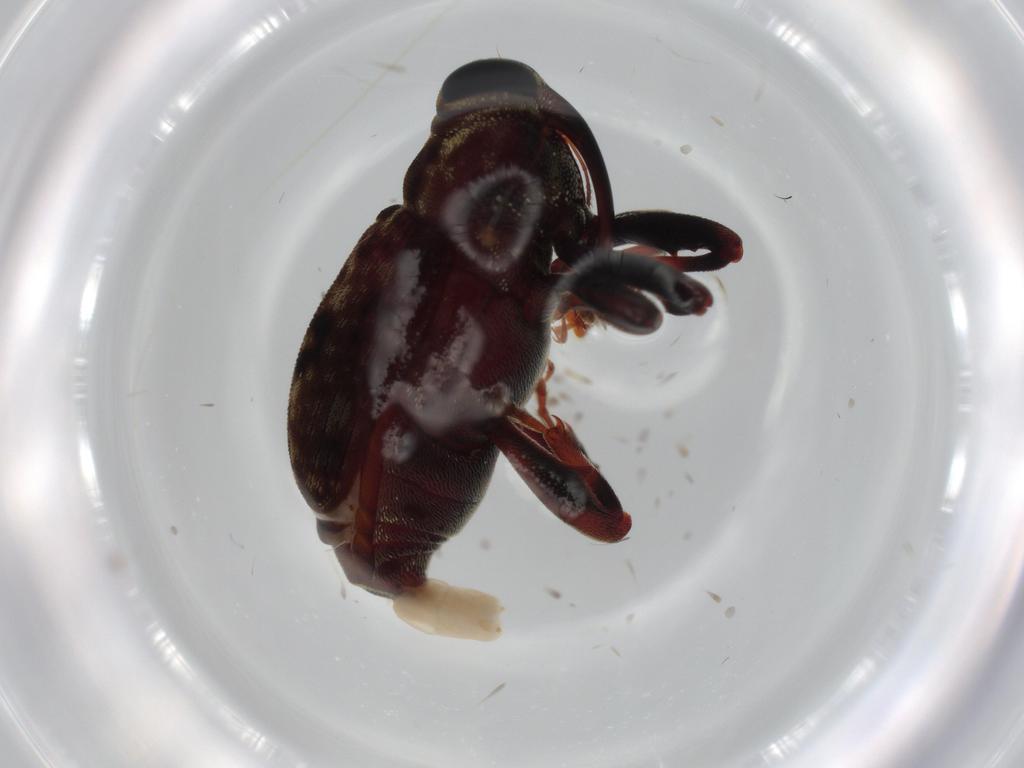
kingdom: Animalia
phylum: Arthropoda
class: Insecta
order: Coleoptera
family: Curculionidae
